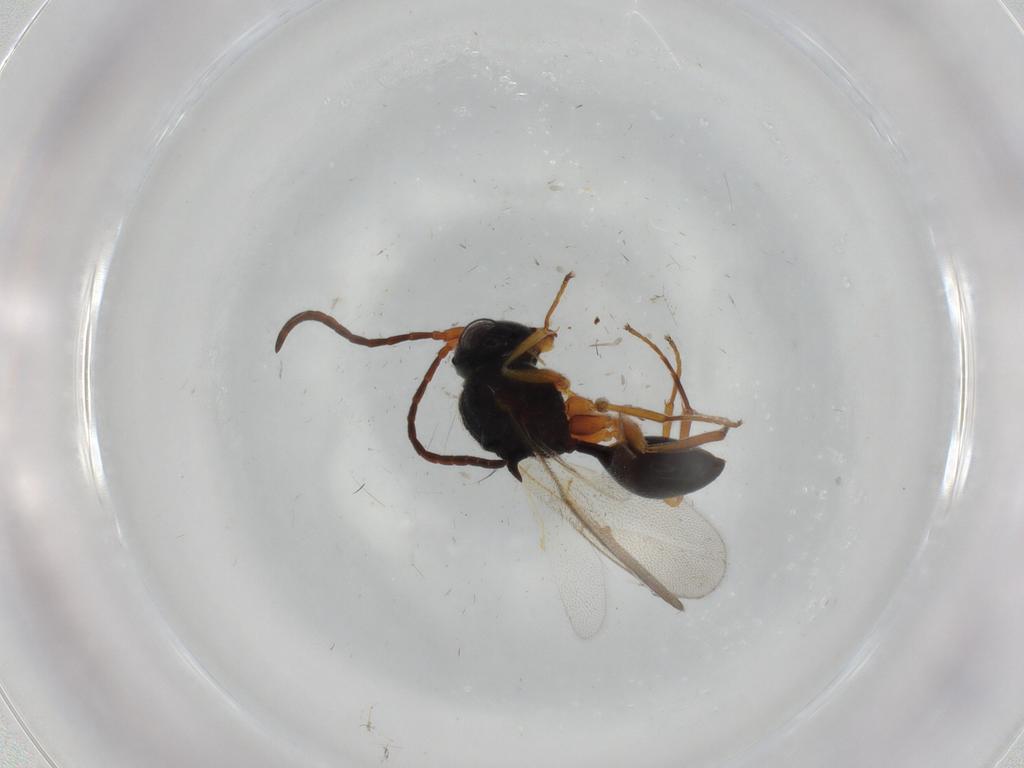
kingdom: Animalia
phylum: Arthropoda
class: Insecta
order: Hymenoptera
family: Figitidae
